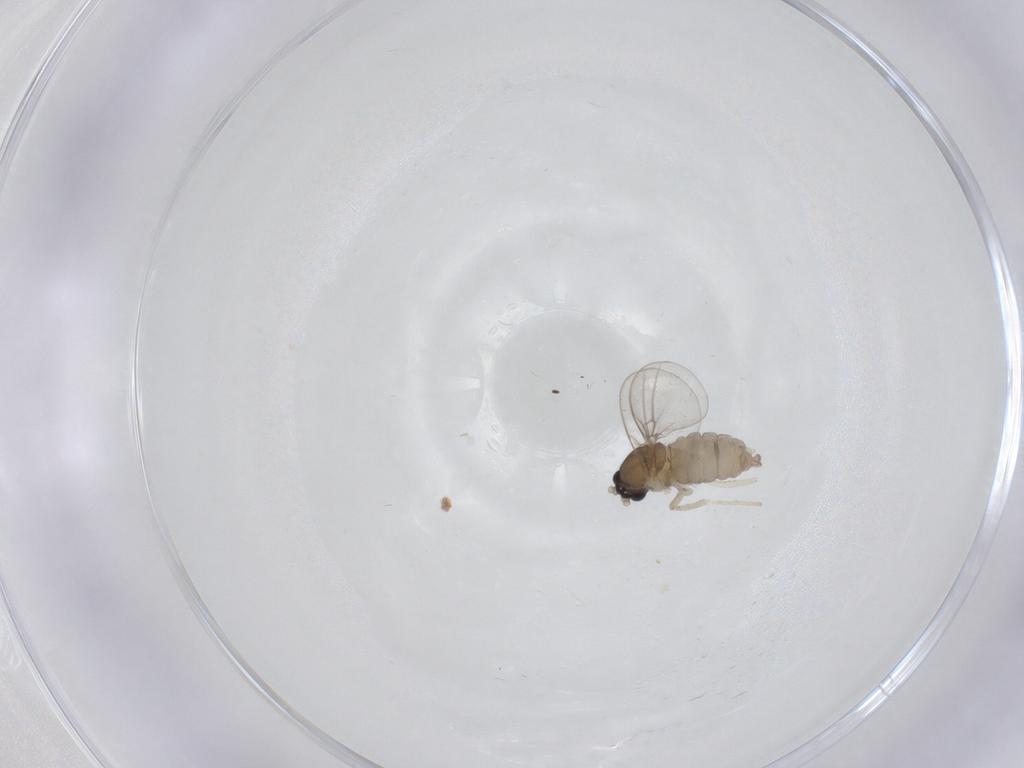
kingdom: Animalia
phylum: Arthropoda
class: Insecta
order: Diptera
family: Cecidomyiidae
